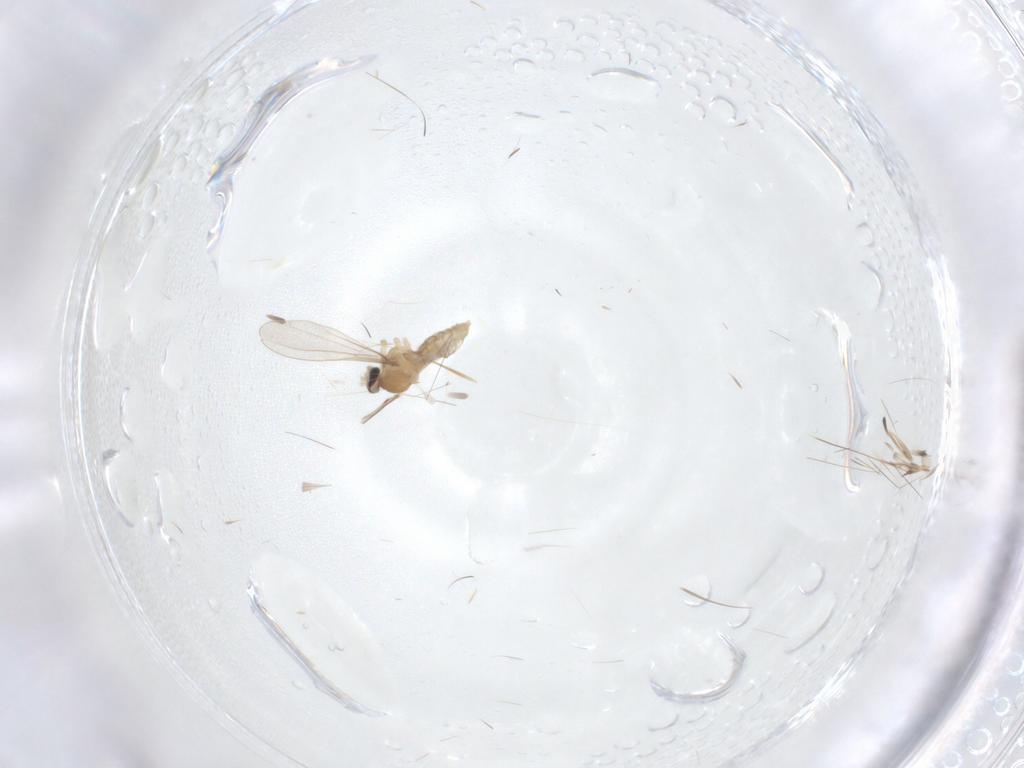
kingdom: Animalia
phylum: Arthropoda
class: Insecta
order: Diptera
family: Cecidomyiidae
